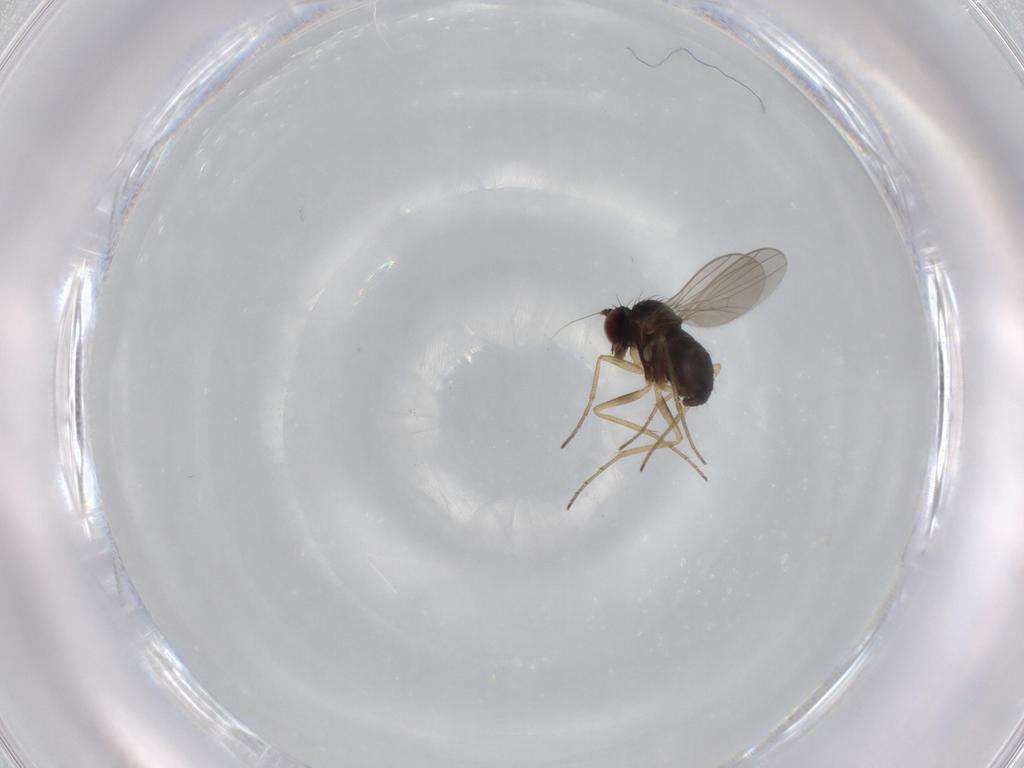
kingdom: Animalia
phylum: Arthropoda
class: Insecta
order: Diptera
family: Dolichopodidae
